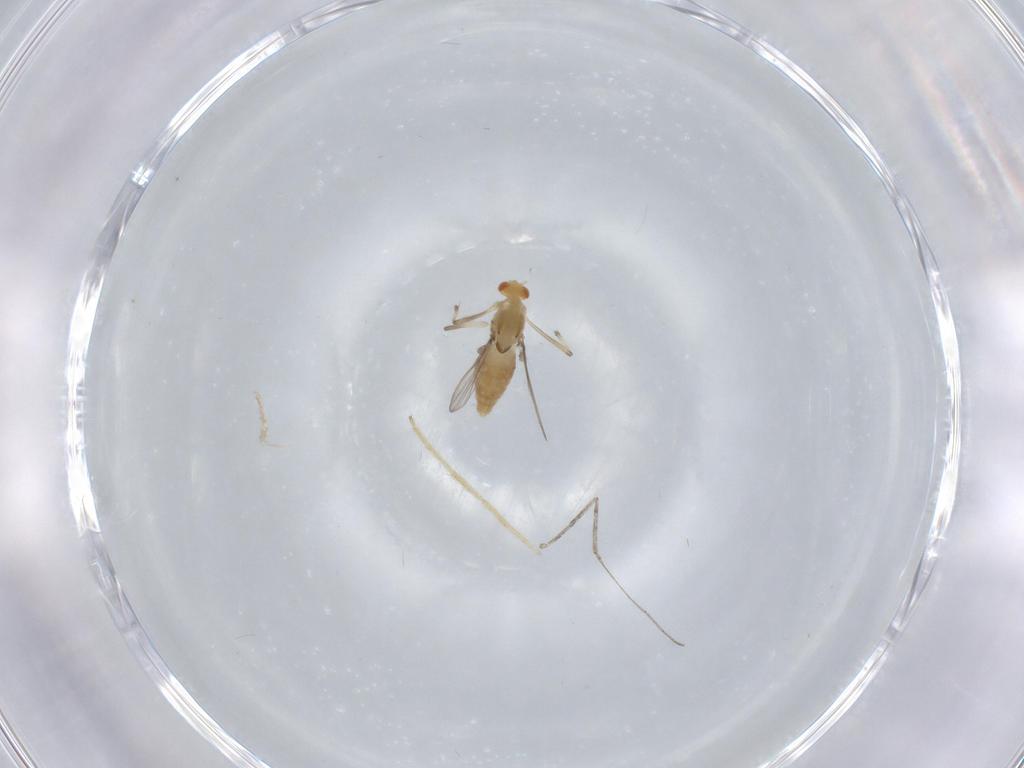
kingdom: Animalia
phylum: Arthropoda
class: Insecta
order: Diptera
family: Chironomidae
